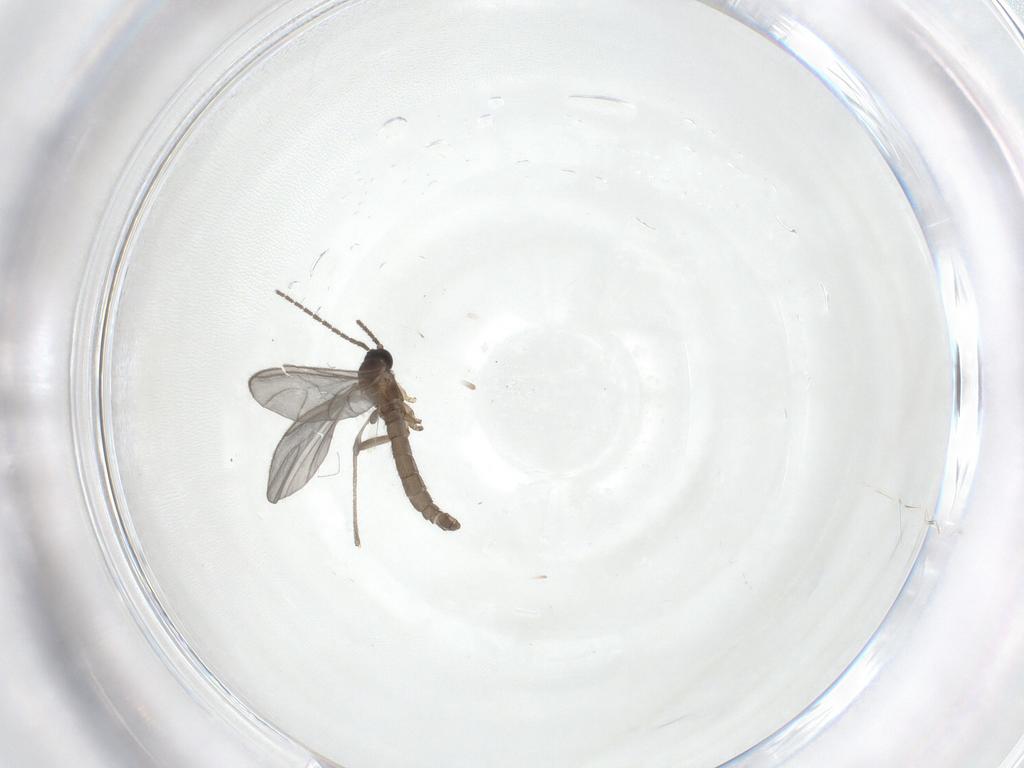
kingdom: Animalia
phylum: Arthropoda
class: Insecta
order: Diptera
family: Sciaridae
